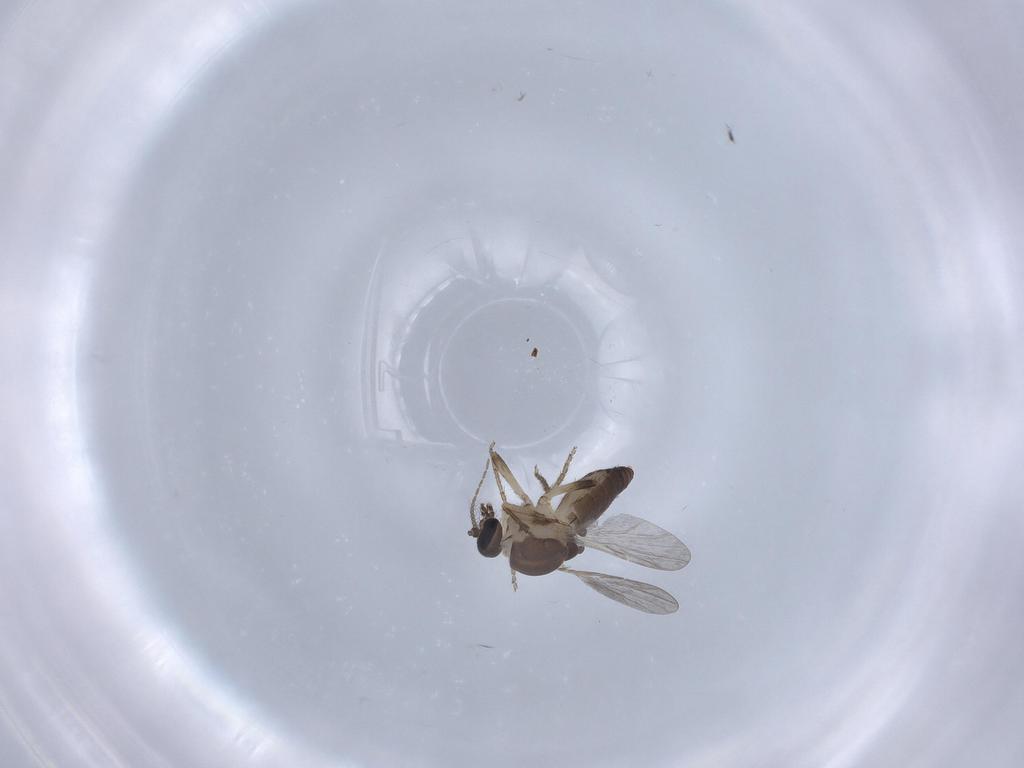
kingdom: Animalia
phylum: Arthropoda
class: Insecta
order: Diptera
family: Ceratopogonidae
